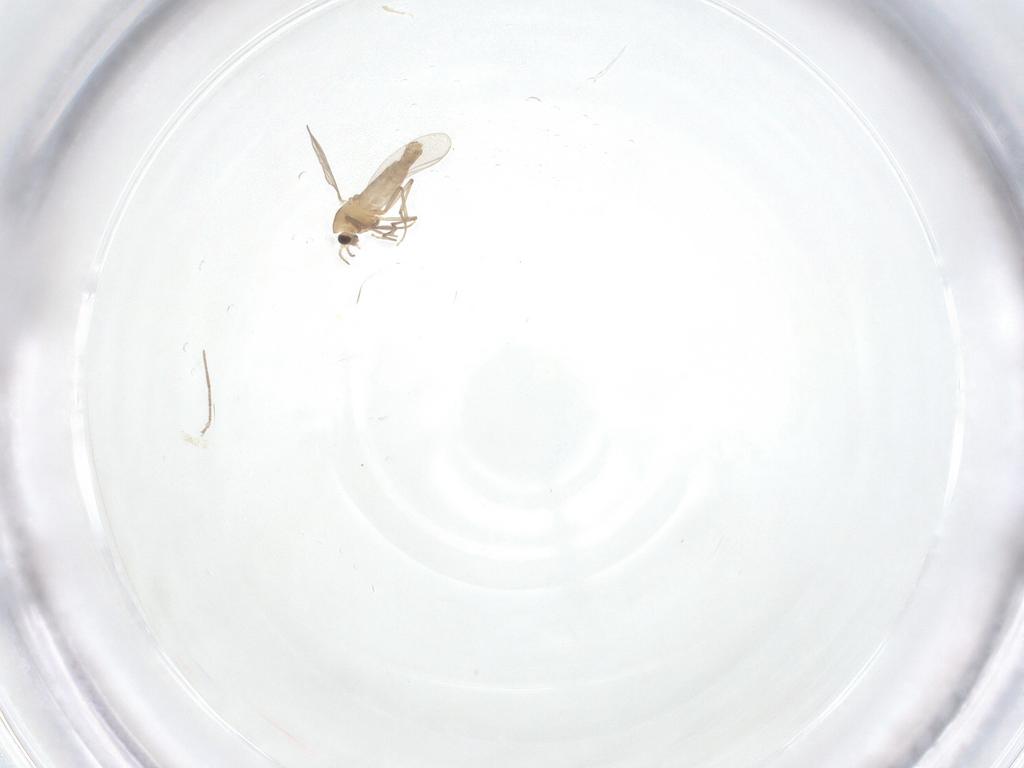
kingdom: Animalia
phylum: Arthropoda
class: Insecta
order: Diptera
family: Chironomidae
